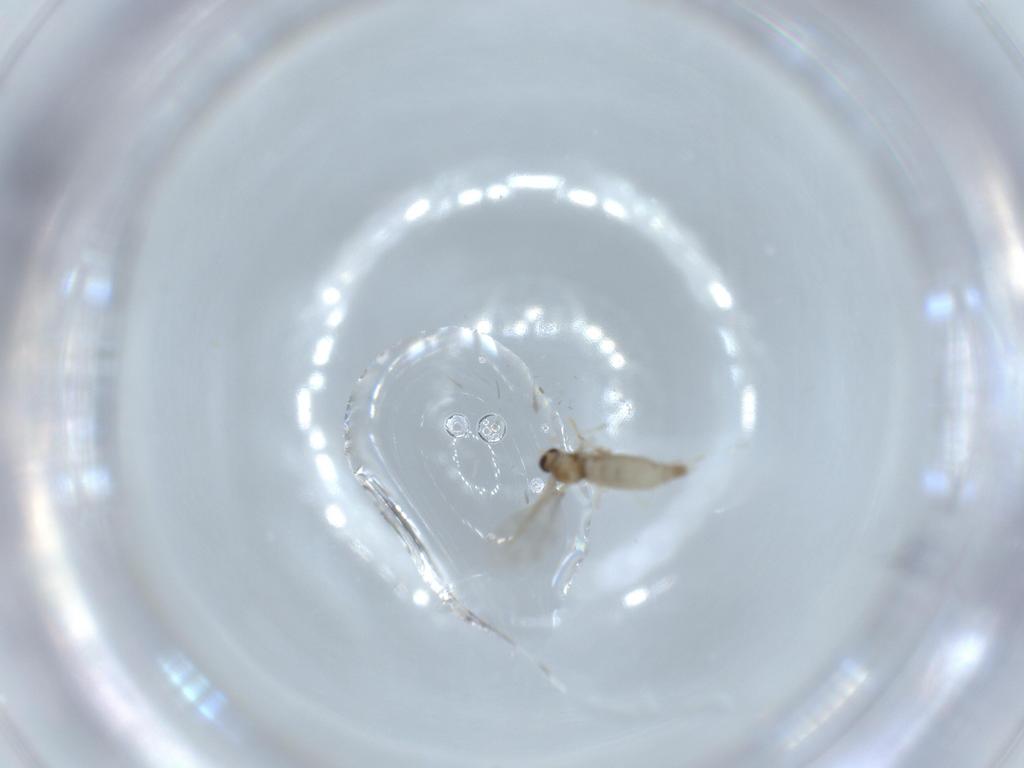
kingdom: Animalia
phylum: Arthropoda
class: Insecta
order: Diptera
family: Cecidomyiidae
